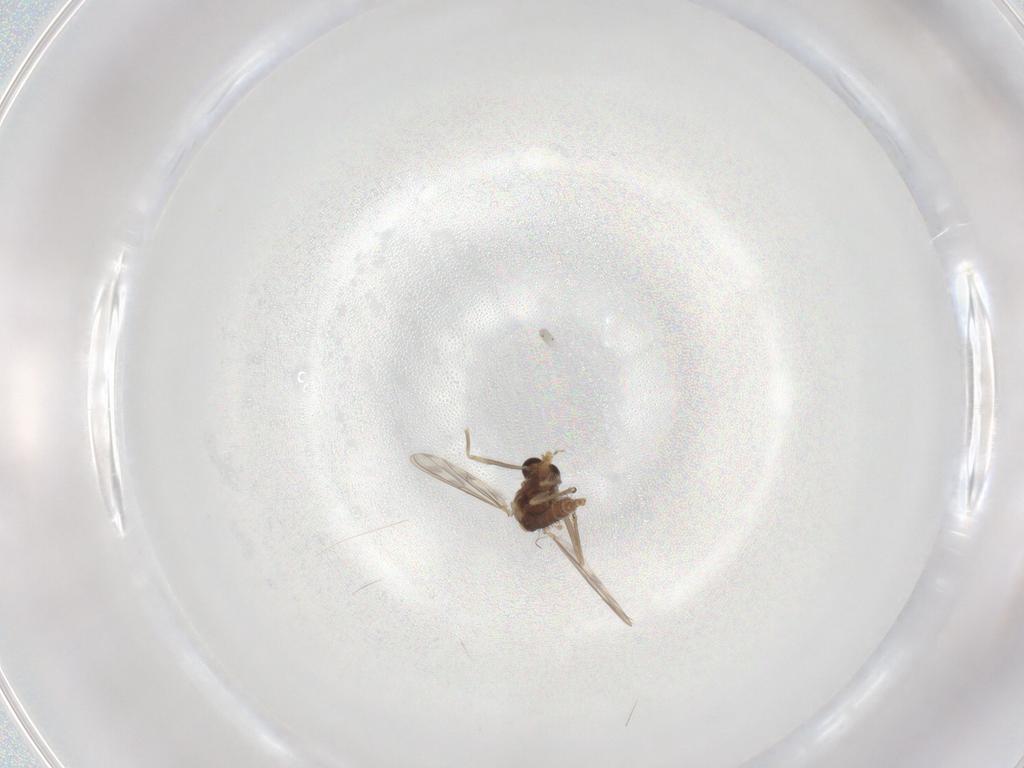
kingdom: Animalia
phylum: Arthropoda
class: Insecta
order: Diptera
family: Chironomidae
